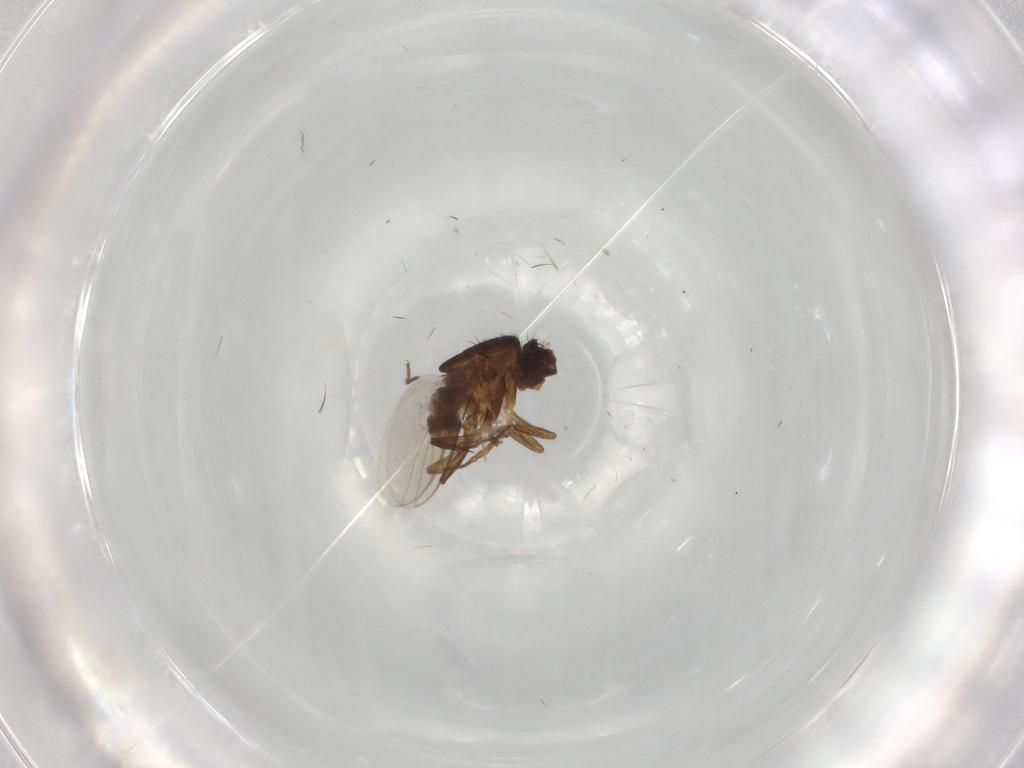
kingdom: Animalia
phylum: Arthropoda
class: Insecta
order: Diptera
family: Sphaeroceridae
